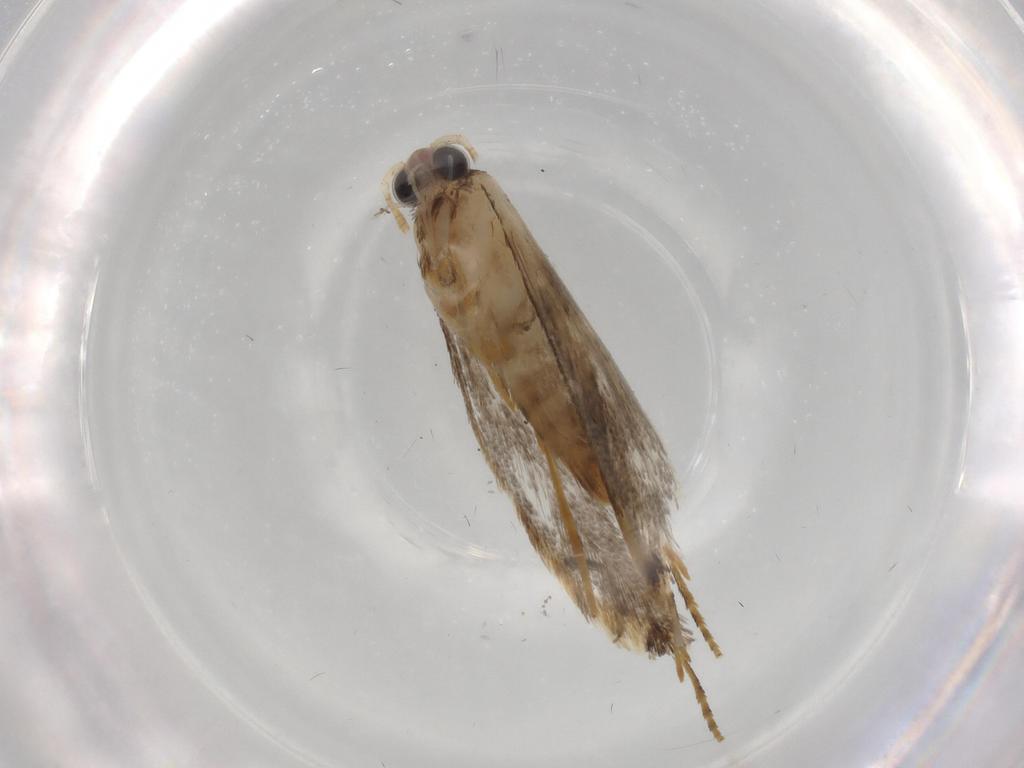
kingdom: Animalia
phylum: Arthropoda
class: Insecta
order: Lepidoptera
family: Tineidae
